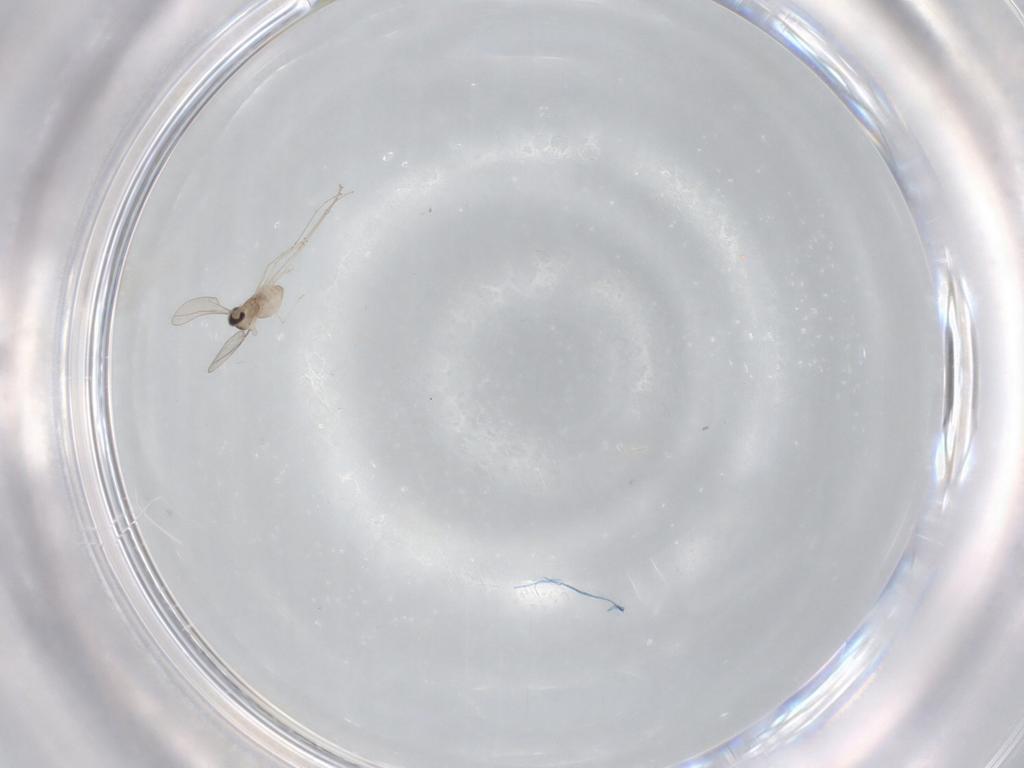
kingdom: Animalia
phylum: Arthropoda
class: Insecta
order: Diptera
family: Cecidomyiidae
